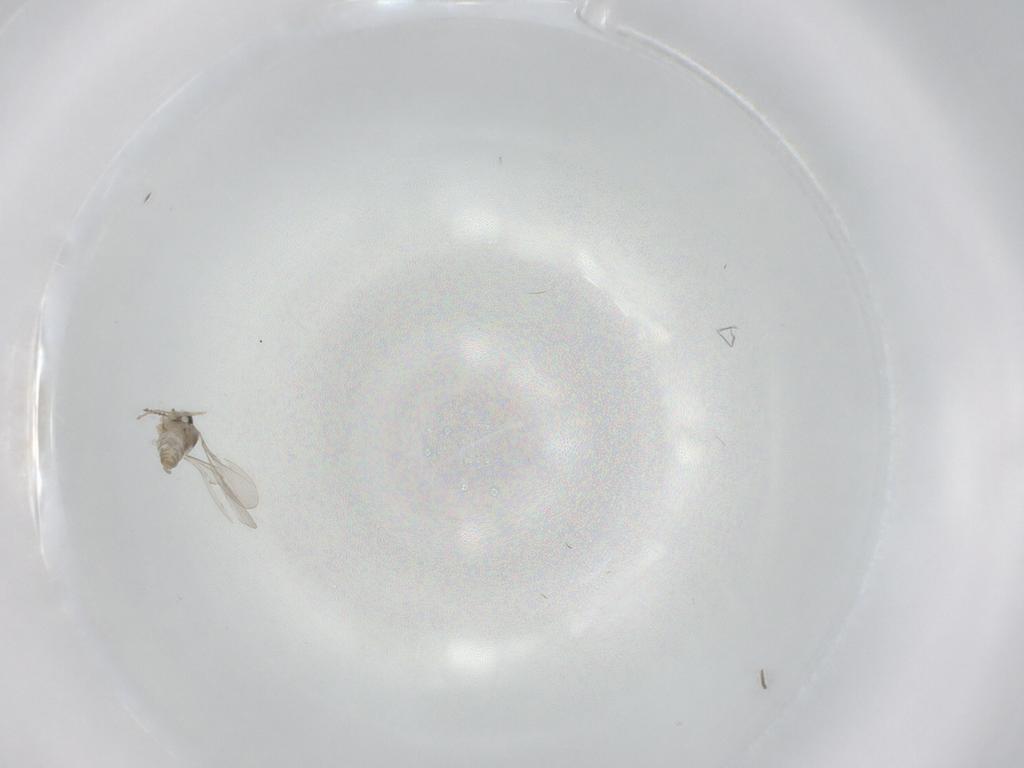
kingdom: Animalia
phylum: Arthropoda
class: Insecta
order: Diptera
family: Cecidomyiidae
